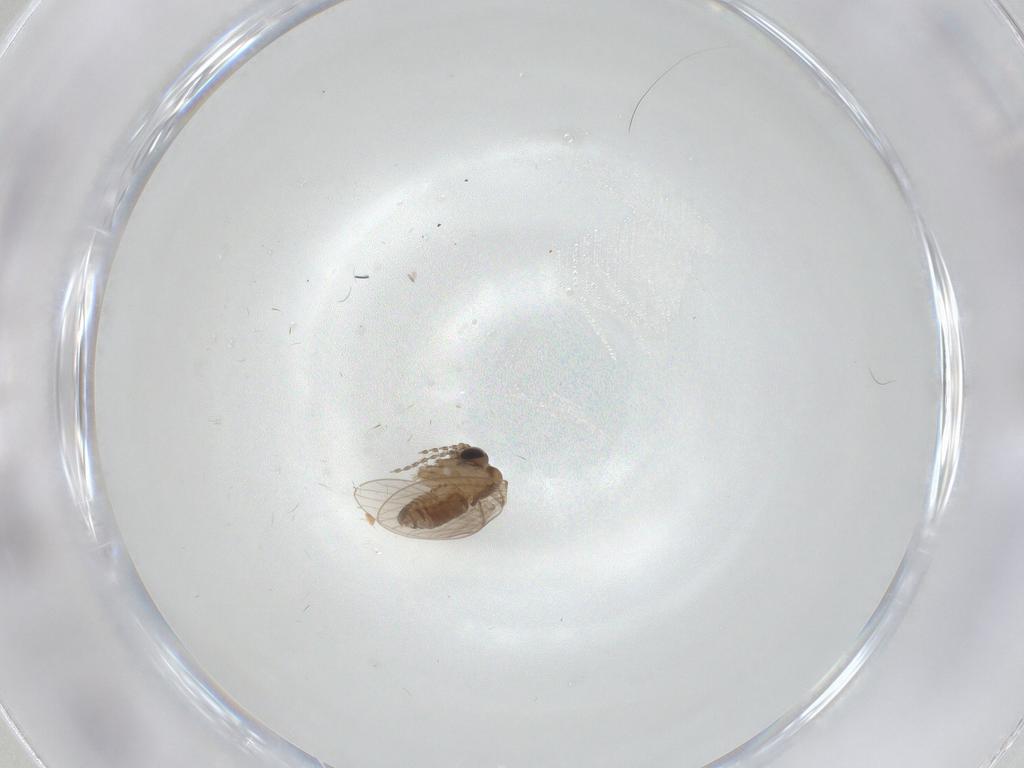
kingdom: Animalia
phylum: Arthropoda
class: Insecta
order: Diptera
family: Psychodidae
